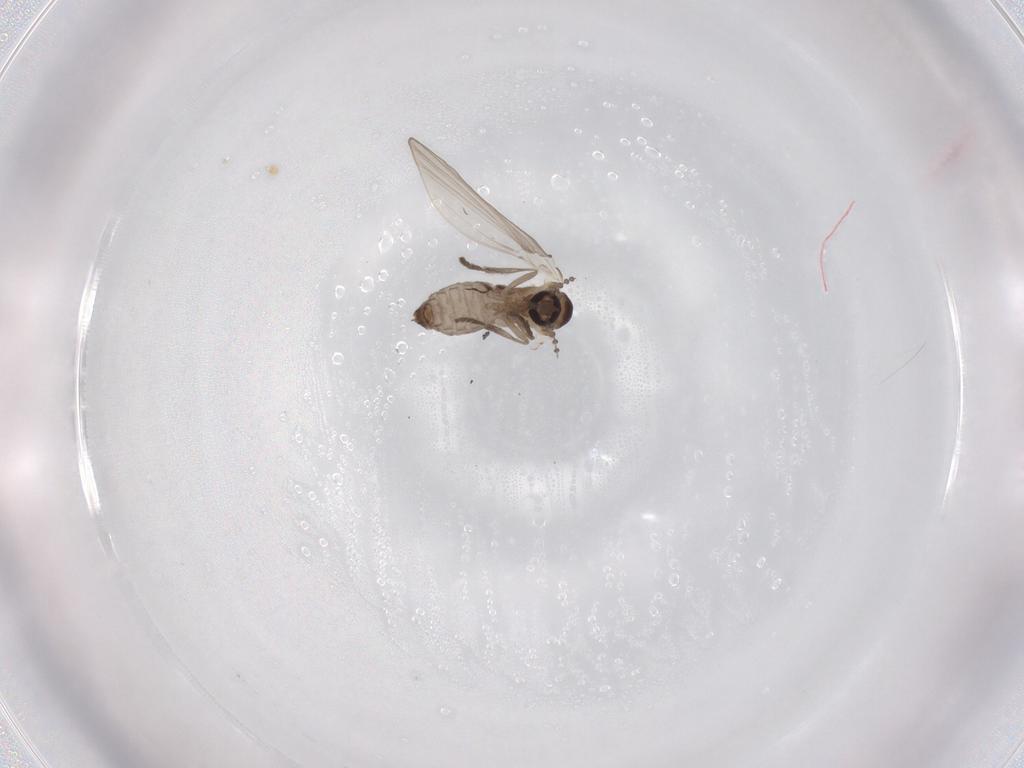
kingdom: Animalia
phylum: Arthropoda
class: Insecta
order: Diptera
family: Psychodidae
